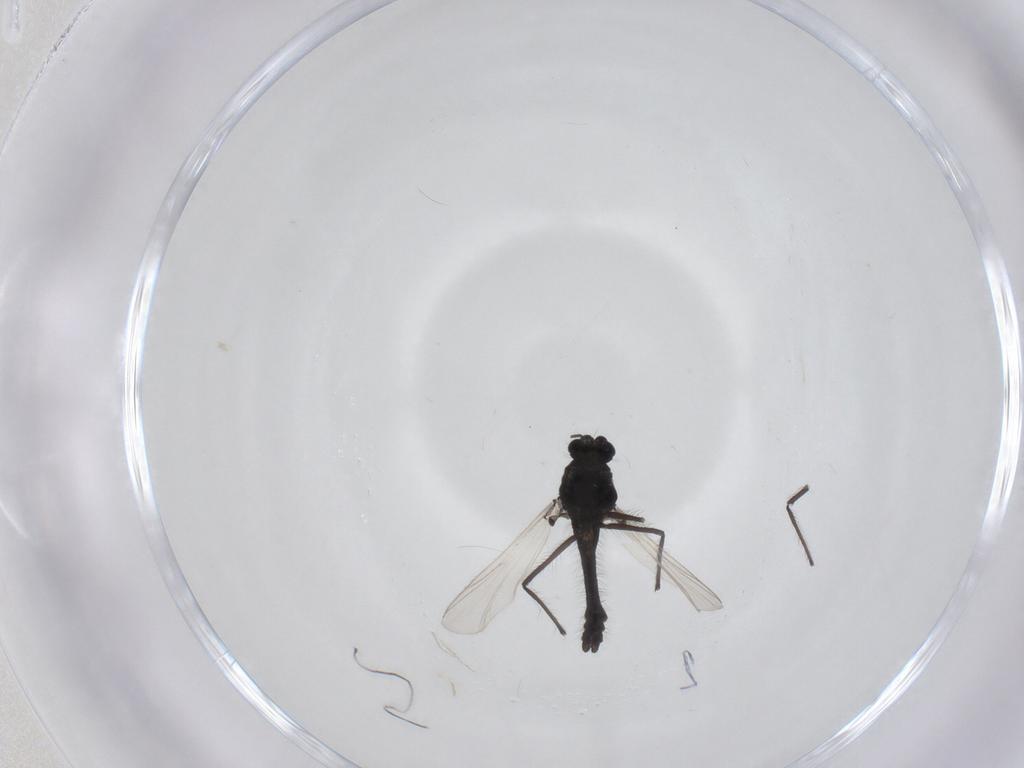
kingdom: Animalia
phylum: Arthropoda
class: Insecta
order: Diptera
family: Chironomidae
